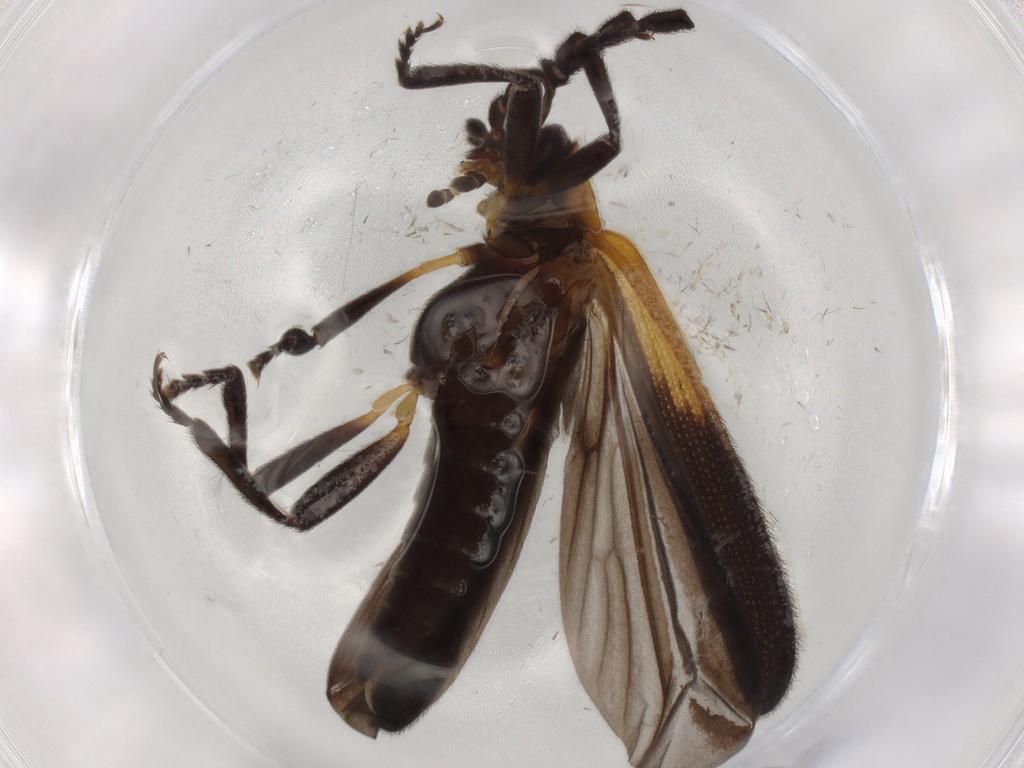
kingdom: Animalia
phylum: Arthropoda
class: Insecta
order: Coleoptera
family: Lycidae
